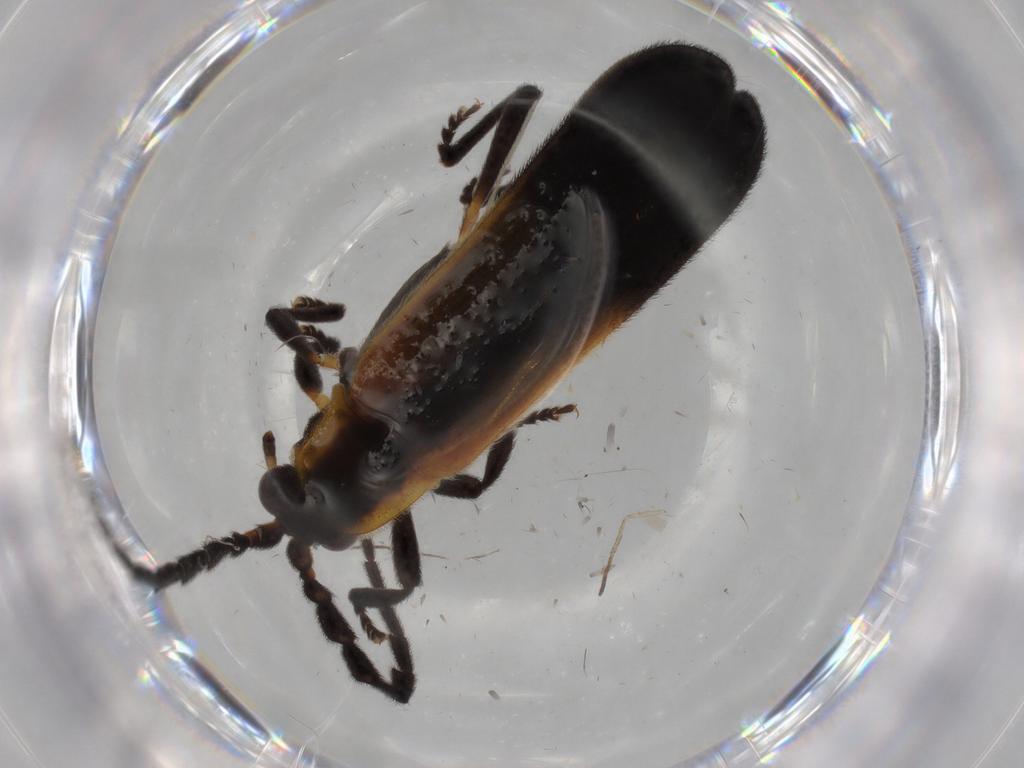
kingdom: Animalia
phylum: Arthropoda
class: Insecta
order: Coleoptera
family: Lycidae
